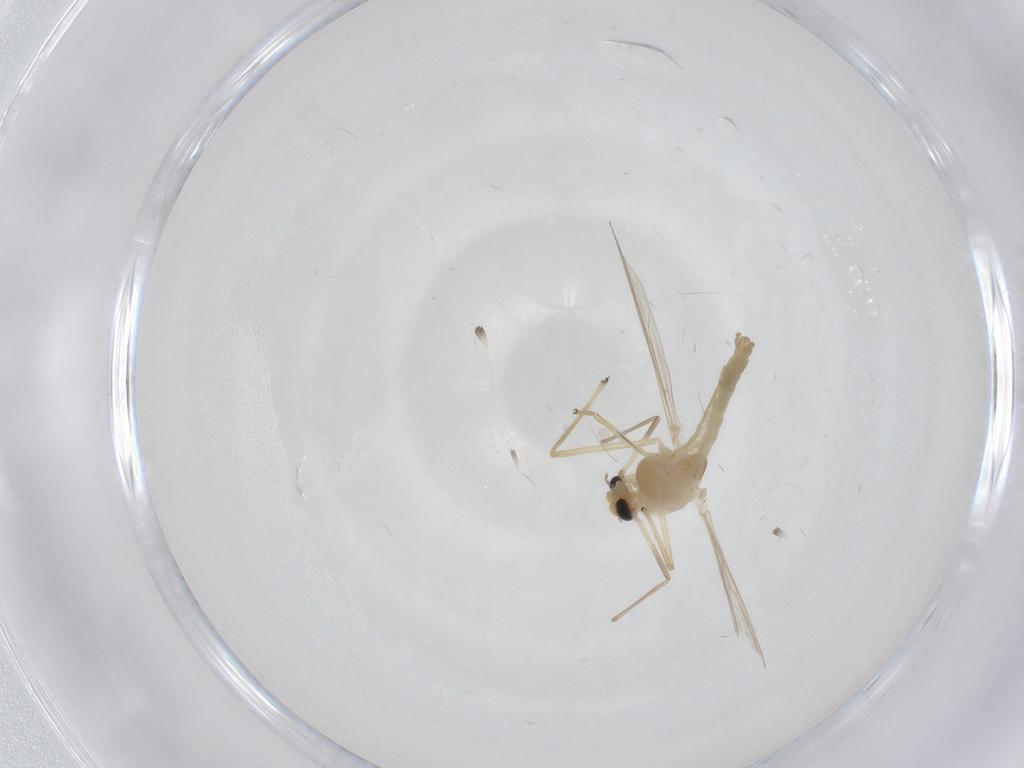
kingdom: Animalia
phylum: Arthropoda
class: Insecta
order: Diptera
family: Chironomidae
